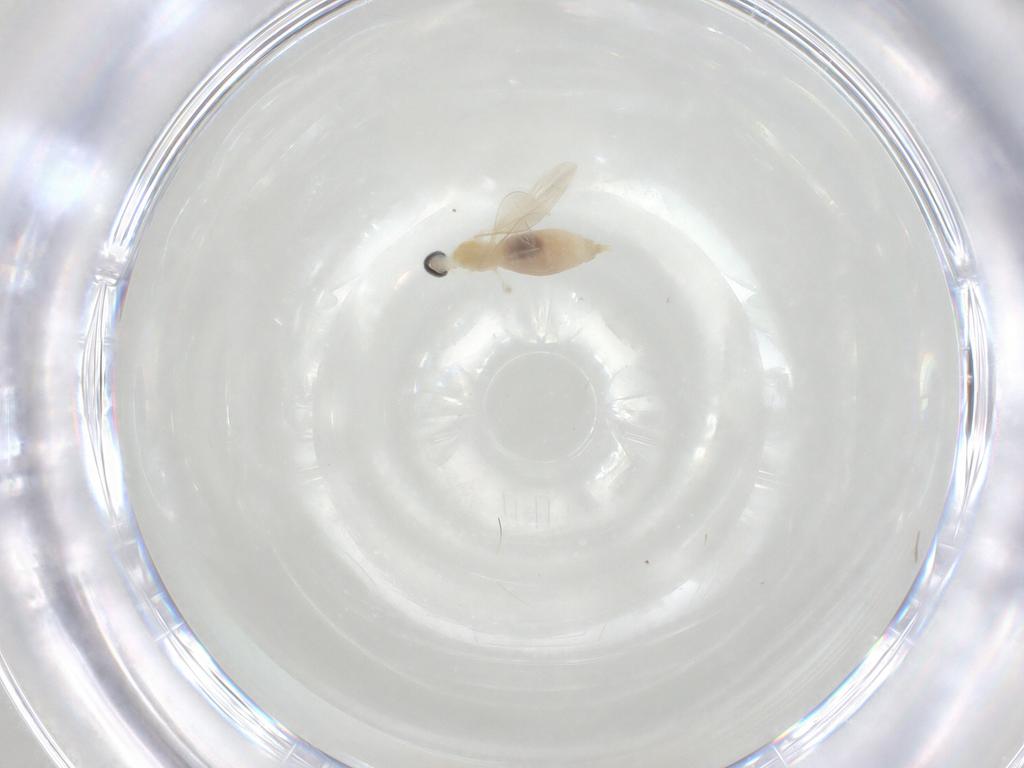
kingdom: Animalia
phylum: Arthropoda
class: Insecta
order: Diptera
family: Cecidomyiidae
